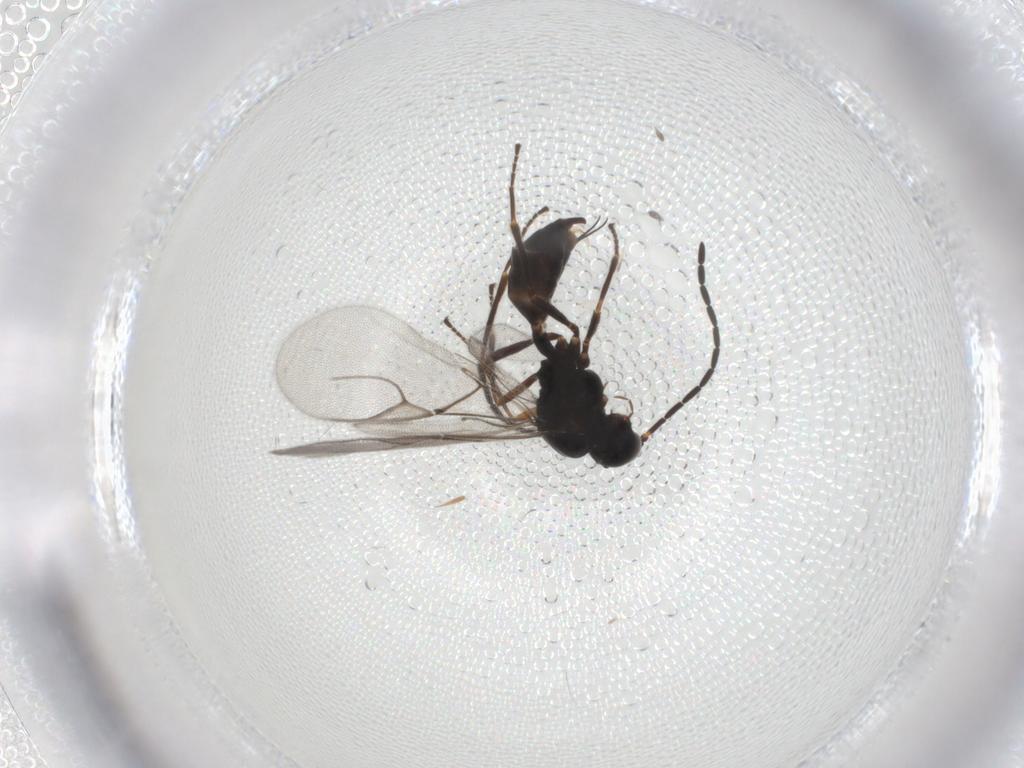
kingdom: Animalia
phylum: Arthropoda
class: Insecta
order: Hymenoptera
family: Braconidae
